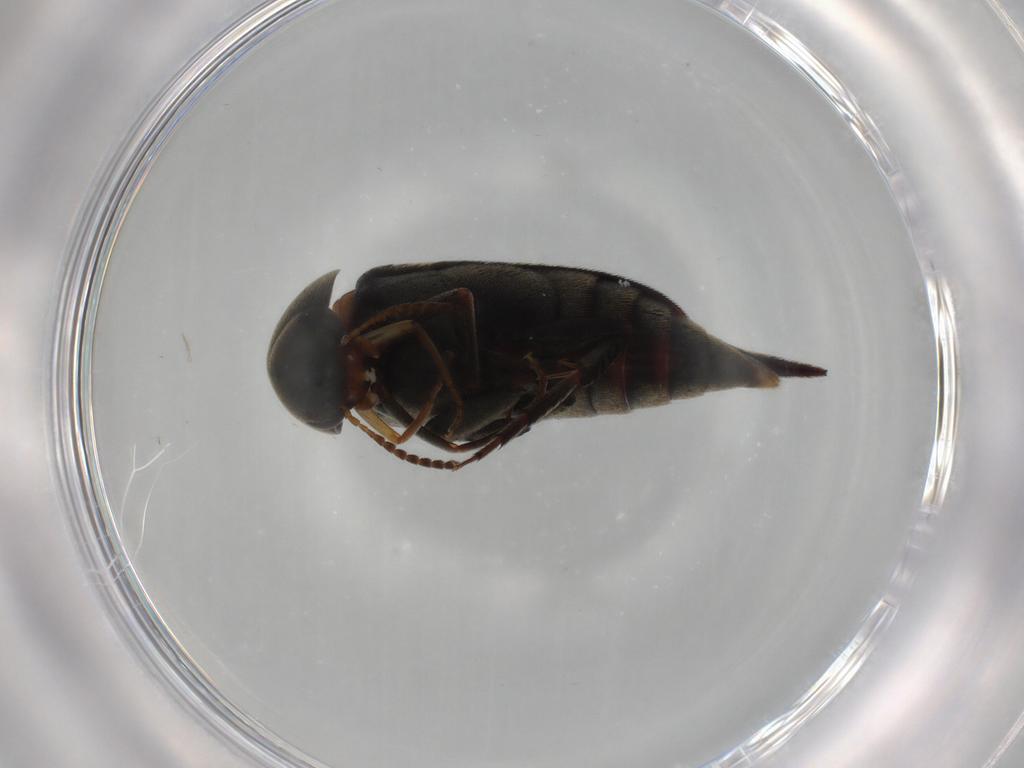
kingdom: Animalia
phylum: Arthropoda
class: Insecta
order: Coleoptera
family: Mordellidae
